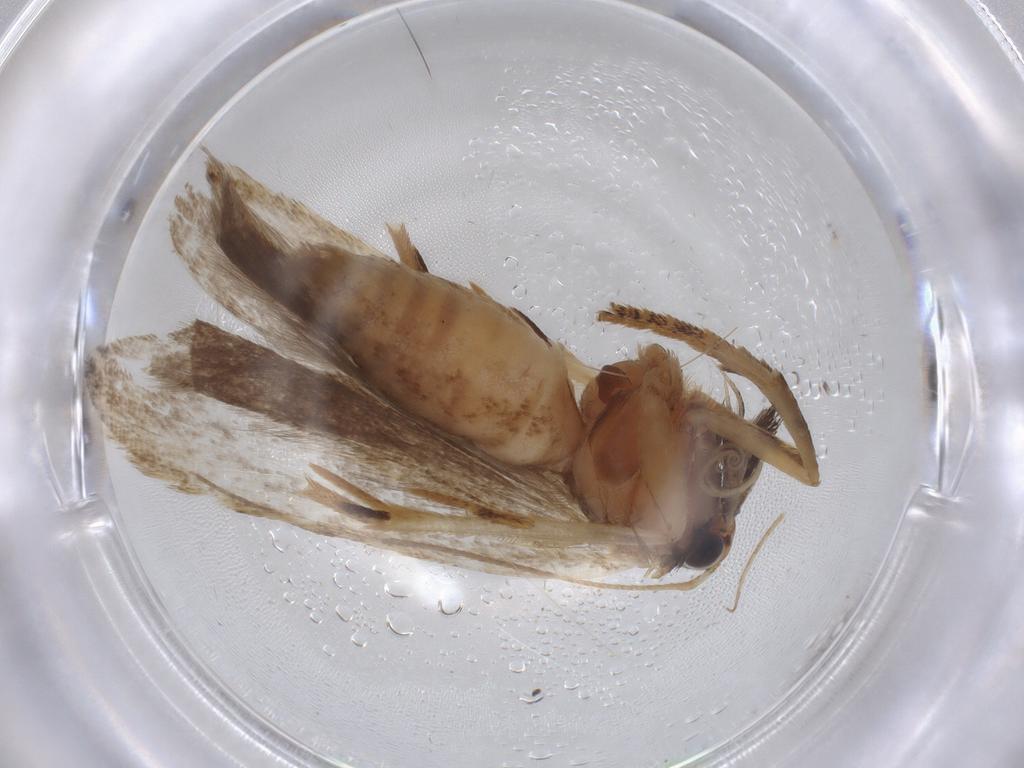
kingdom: Animalia
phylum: Arthropoda
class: Insecta
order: Lepidoptera
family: Gelechiidae
